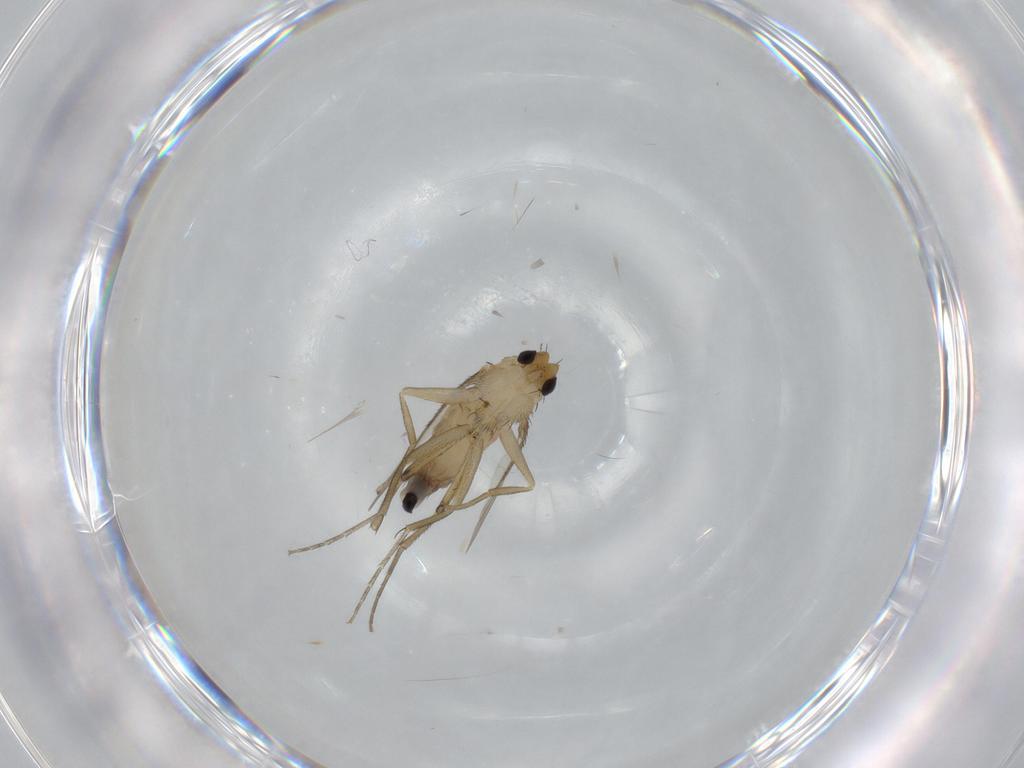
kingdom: Animalia
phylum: Arthropoda
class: Insecta
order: Diptera
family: Phoridae
